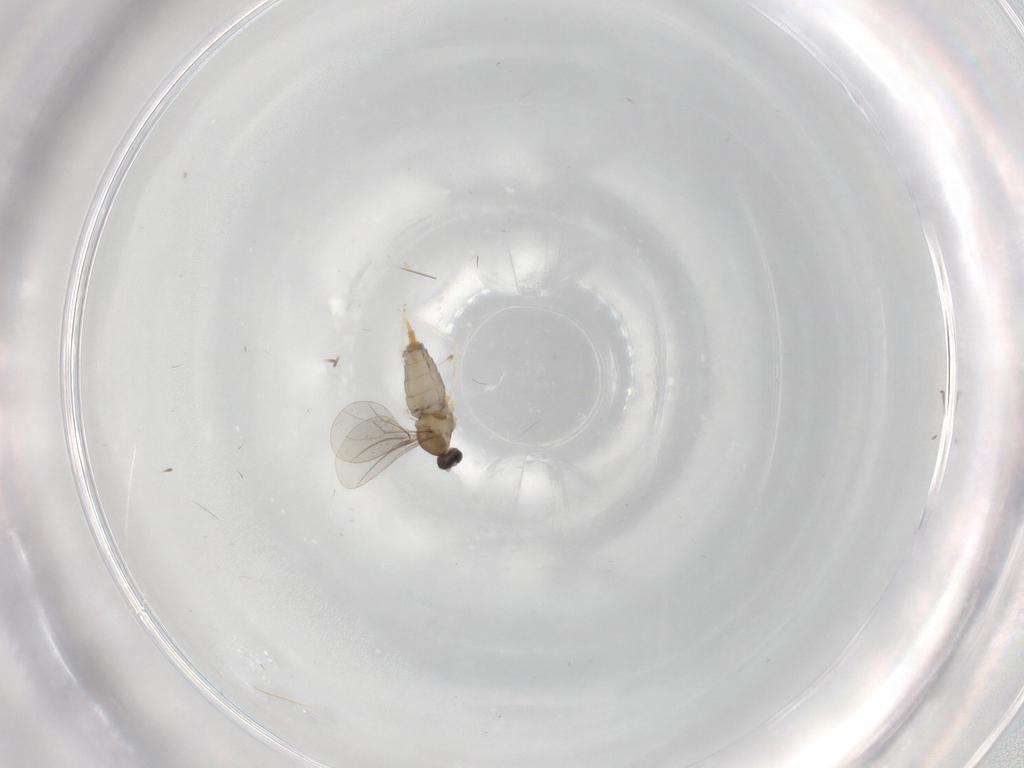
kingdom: Animalia
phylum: Arthropoda
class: Insecta
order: Diptera
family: Cecidomyiidae
